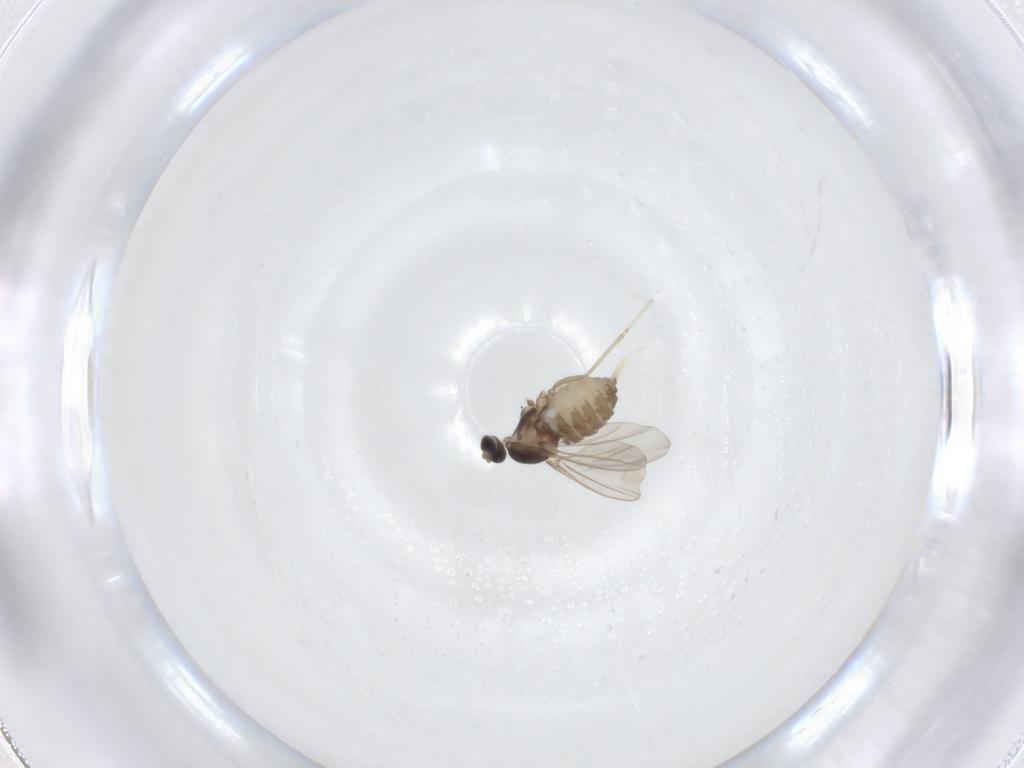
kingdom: Animalia
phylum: Arthropoda
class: Insecta
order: Diptera
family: Cecidomyiidae
